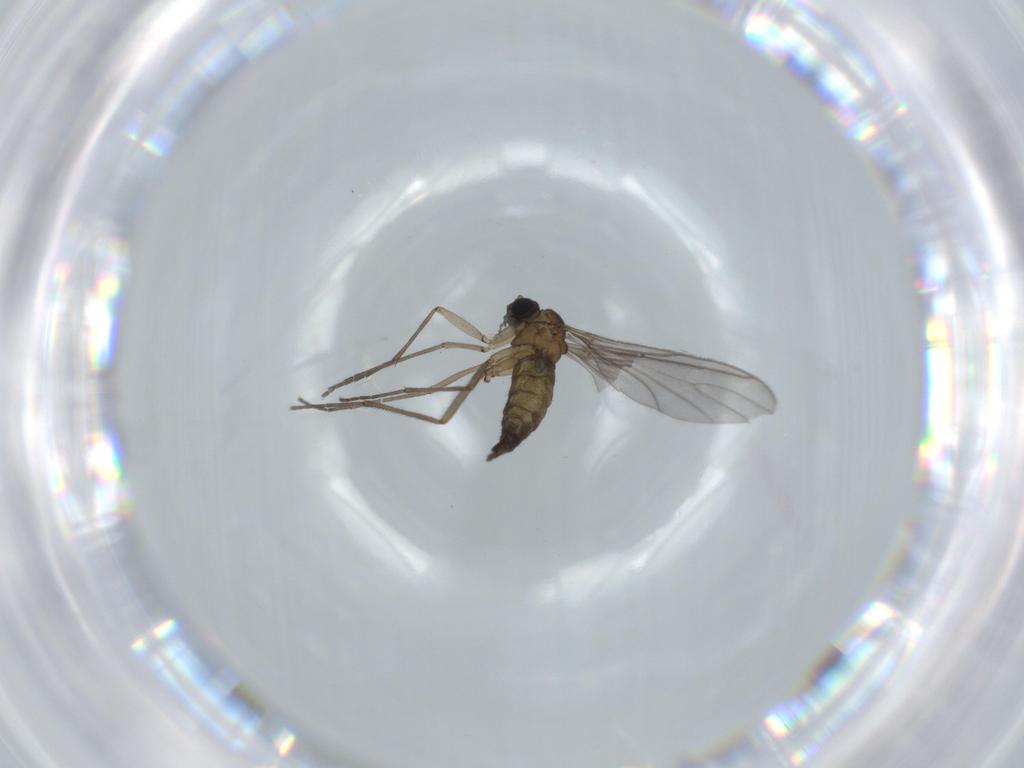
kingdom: Animalia
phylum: Arthropoda
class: Insecta
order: Diptera
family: Sciaridae
